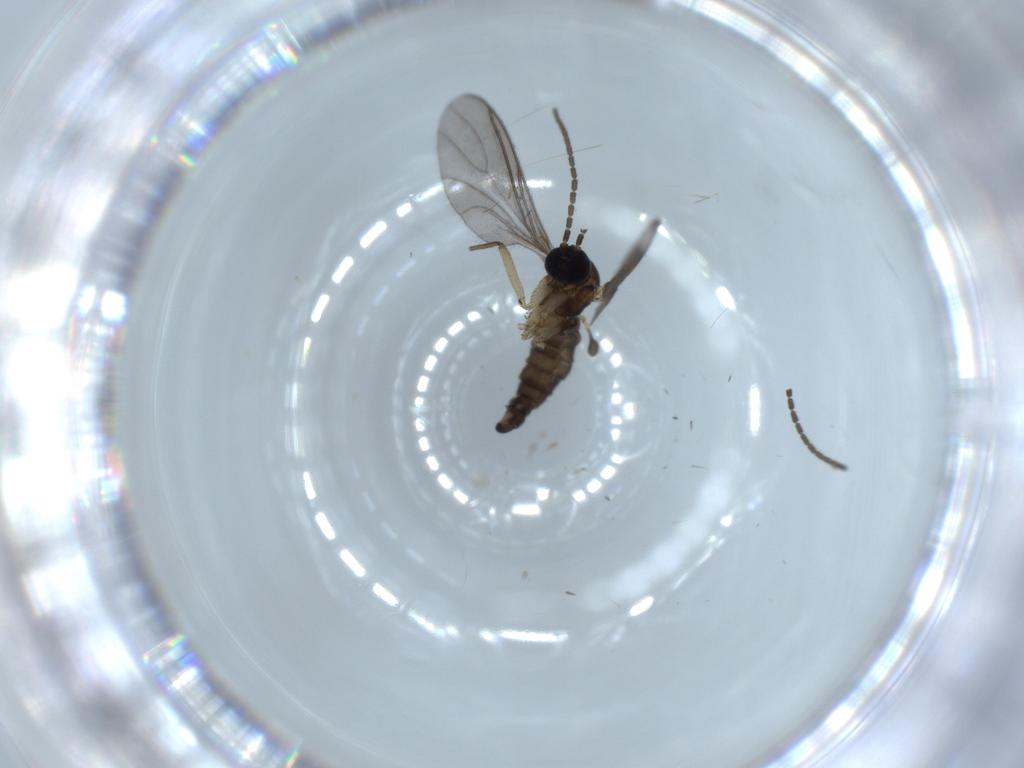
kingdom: Animalia
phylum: Arthropoda
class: Insecta
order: Diptera
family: Sciaridae
